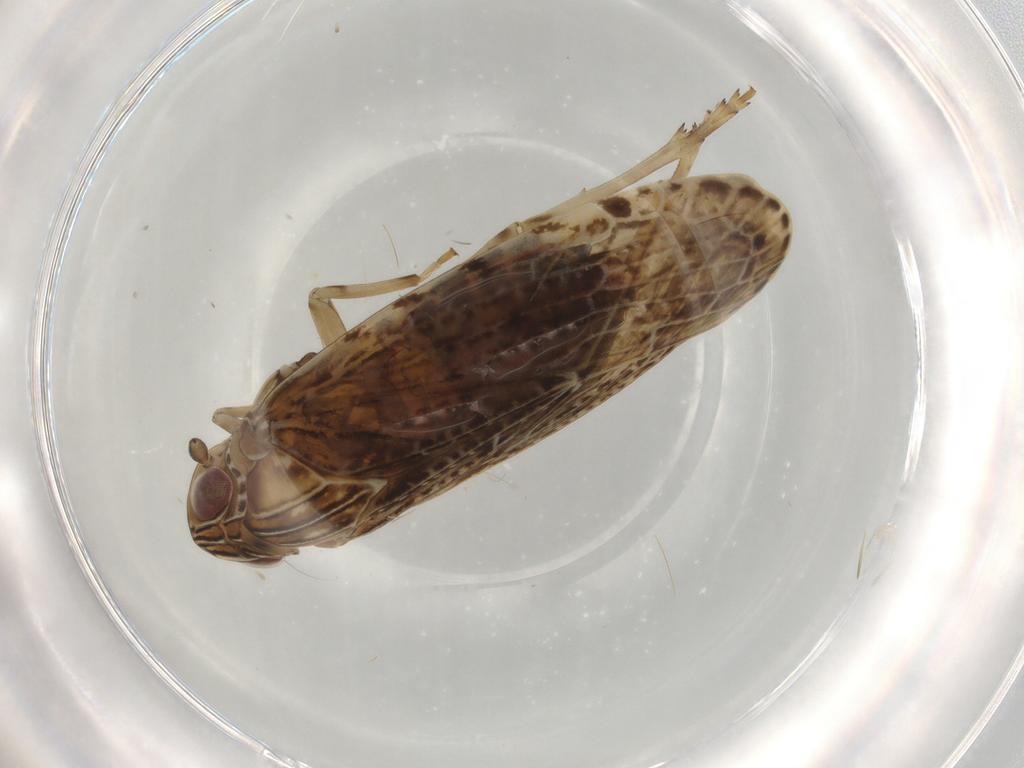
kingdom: Animalia
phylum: Arthropoda
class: Insecta
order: Hemiptera
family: Achilidae
